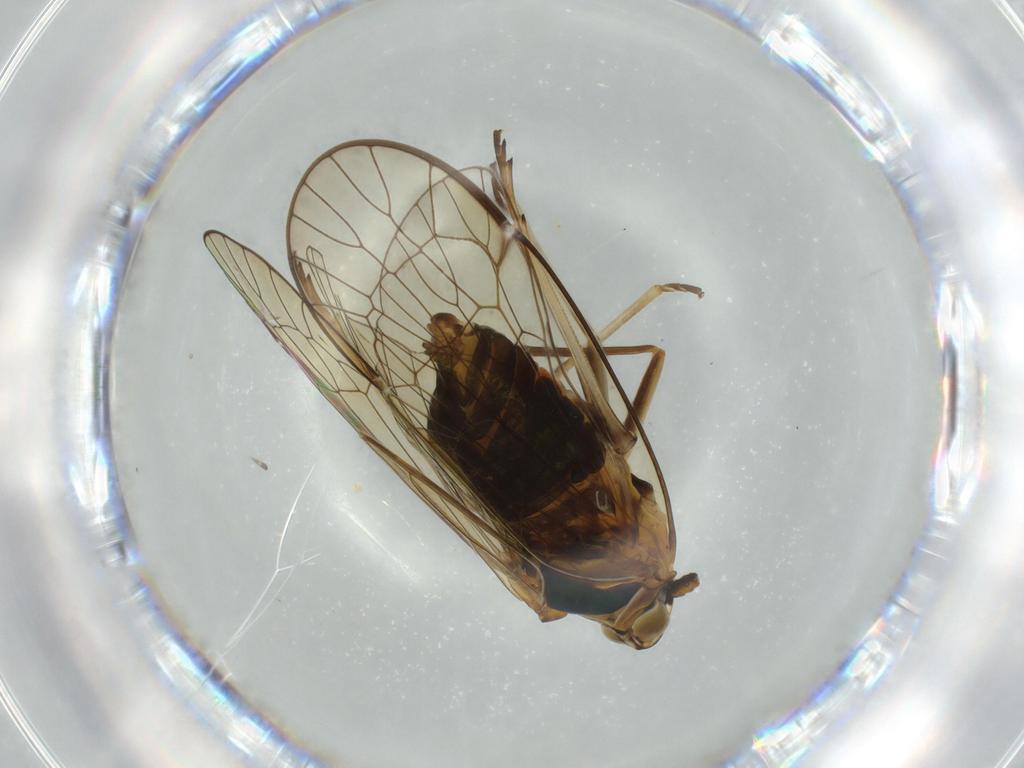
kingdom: Animalia
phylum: Arthropoda
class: Insecta
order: Hemiptera
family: Kinnaridae
